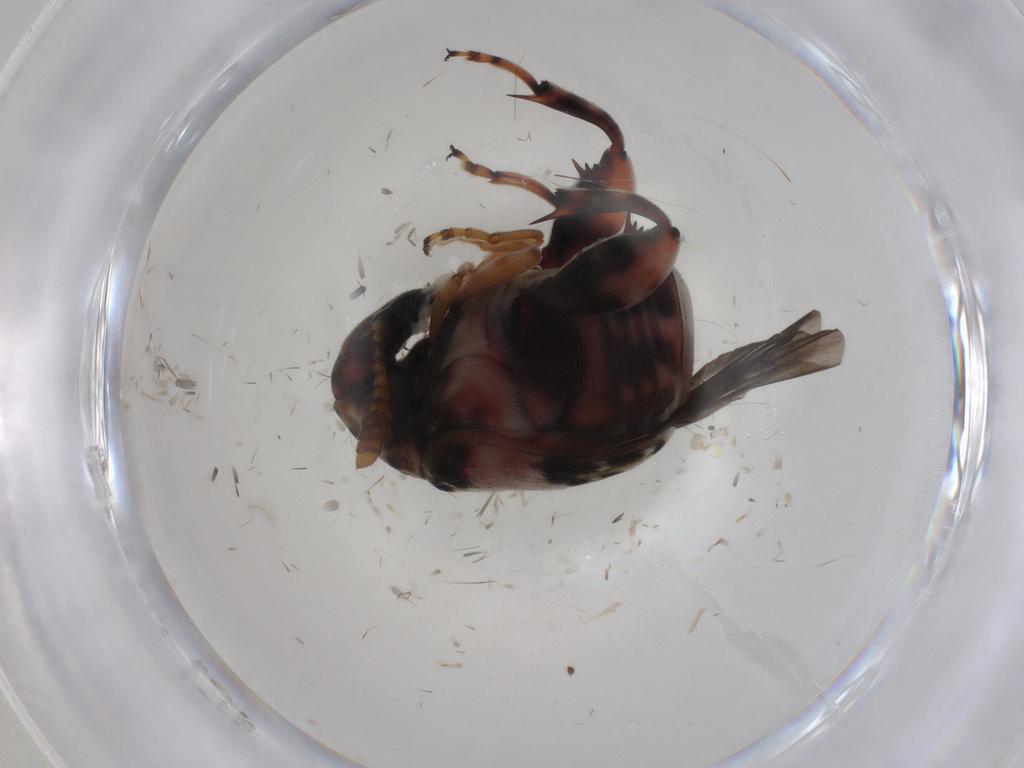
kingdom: Animalia
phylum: Arthropoda
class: Insecta
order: Coleoptera
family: Chrysomelidae
